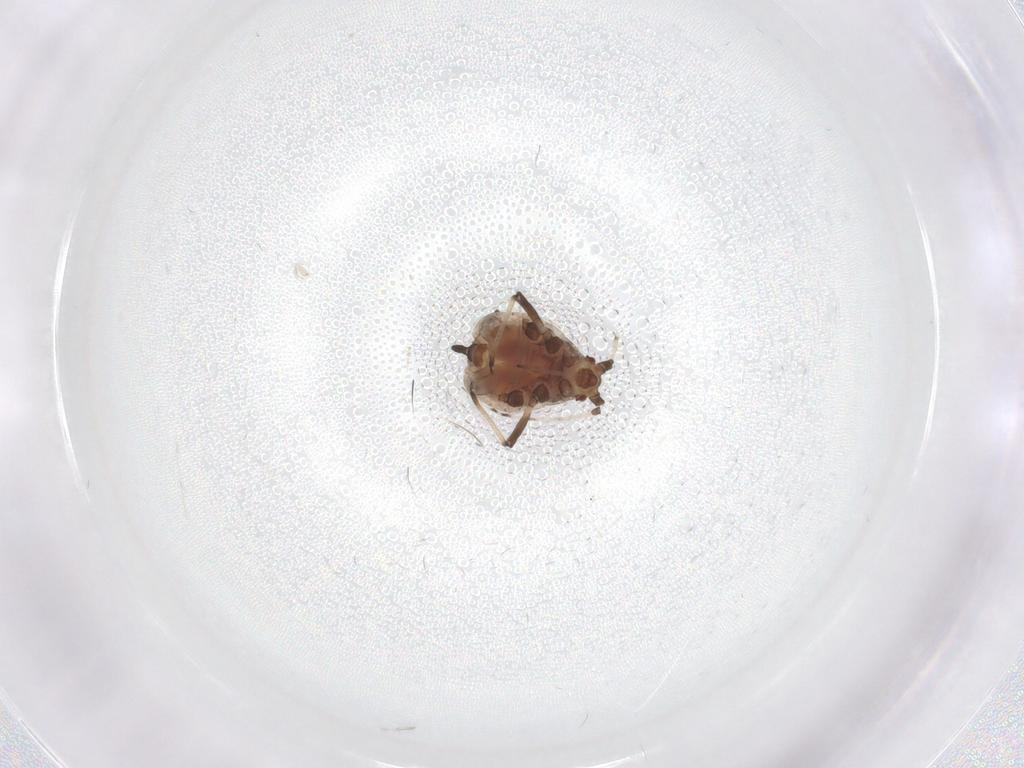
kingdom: Animalia
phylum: Arthropoda
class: Insecta
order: Hemiptera
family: Aphididae
